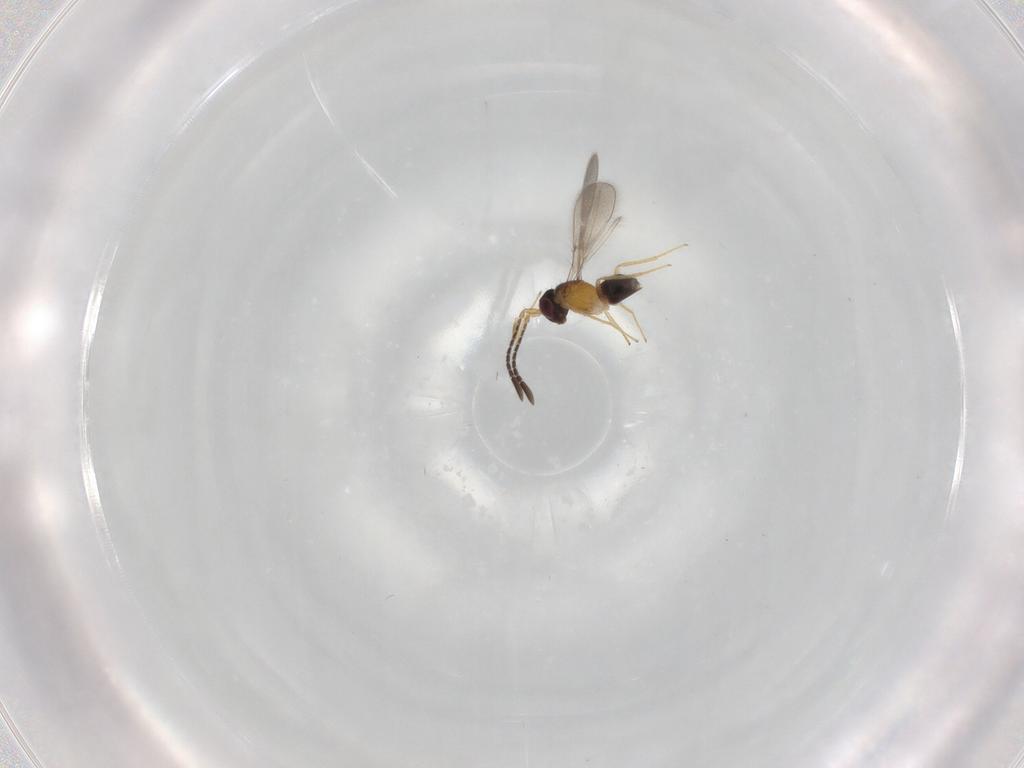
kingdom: Animalia
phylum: Arthropoda
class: Insecta
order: Hymenoptera
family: Mymaridae
